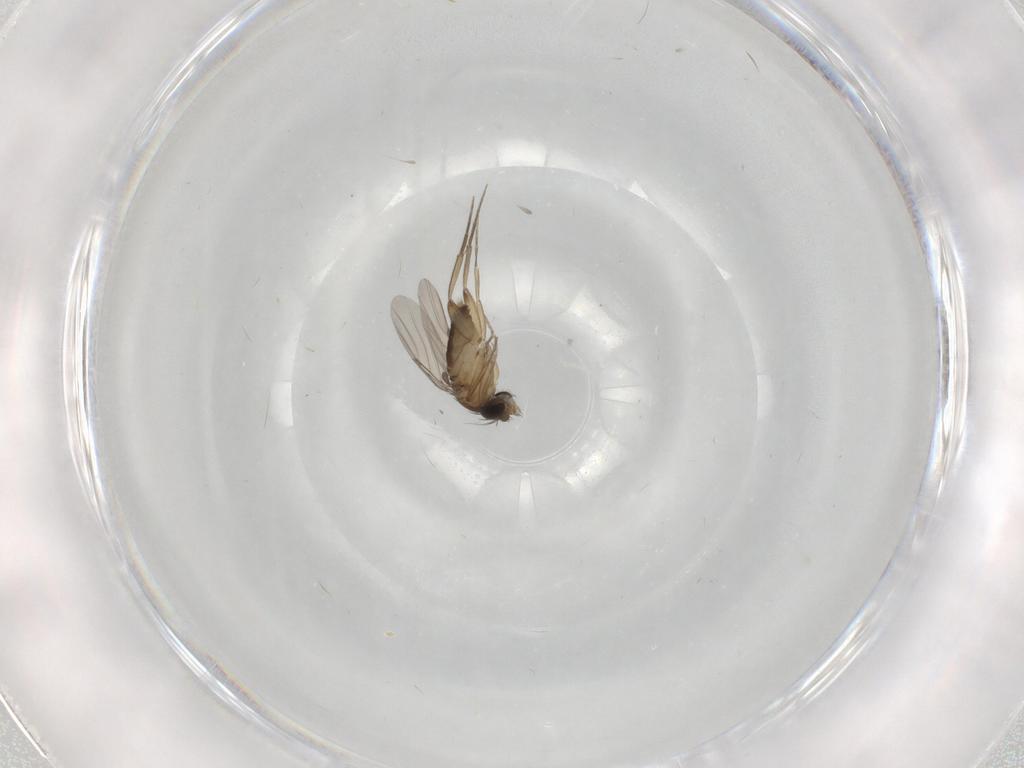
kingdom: Animalia
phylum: Arthropoda
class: Insecta
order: Diptera
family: Phoridae
